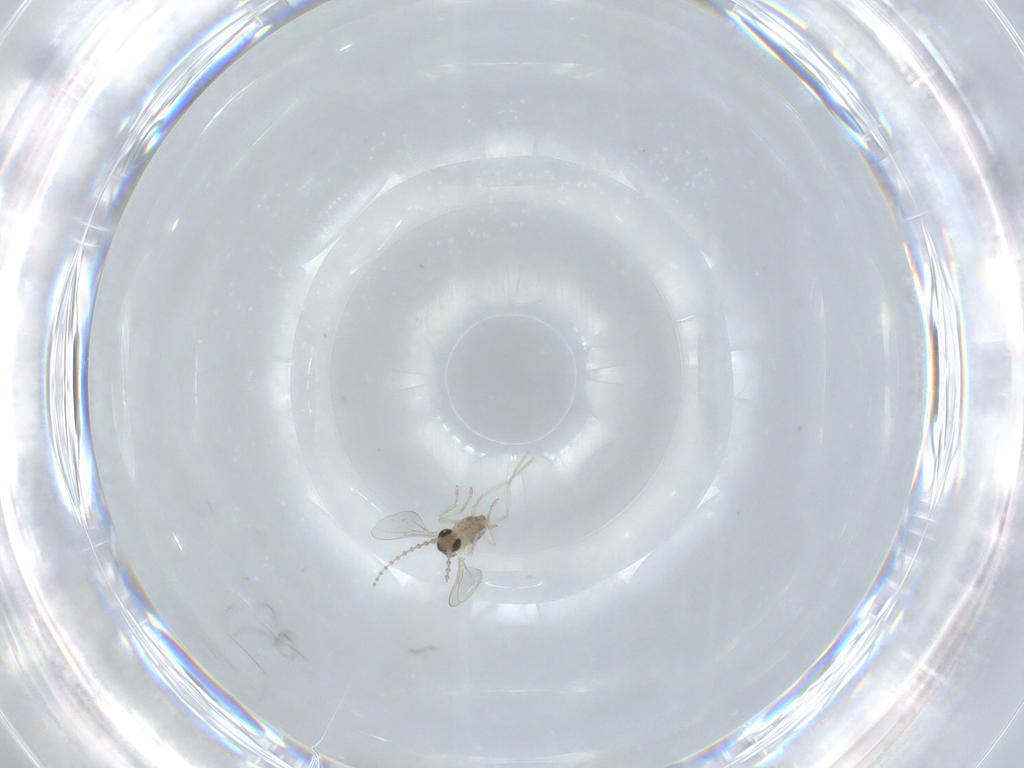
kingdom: Animalia
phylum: Arthropoda
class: Insecta
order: Diptera
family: Cecidomyiidae
